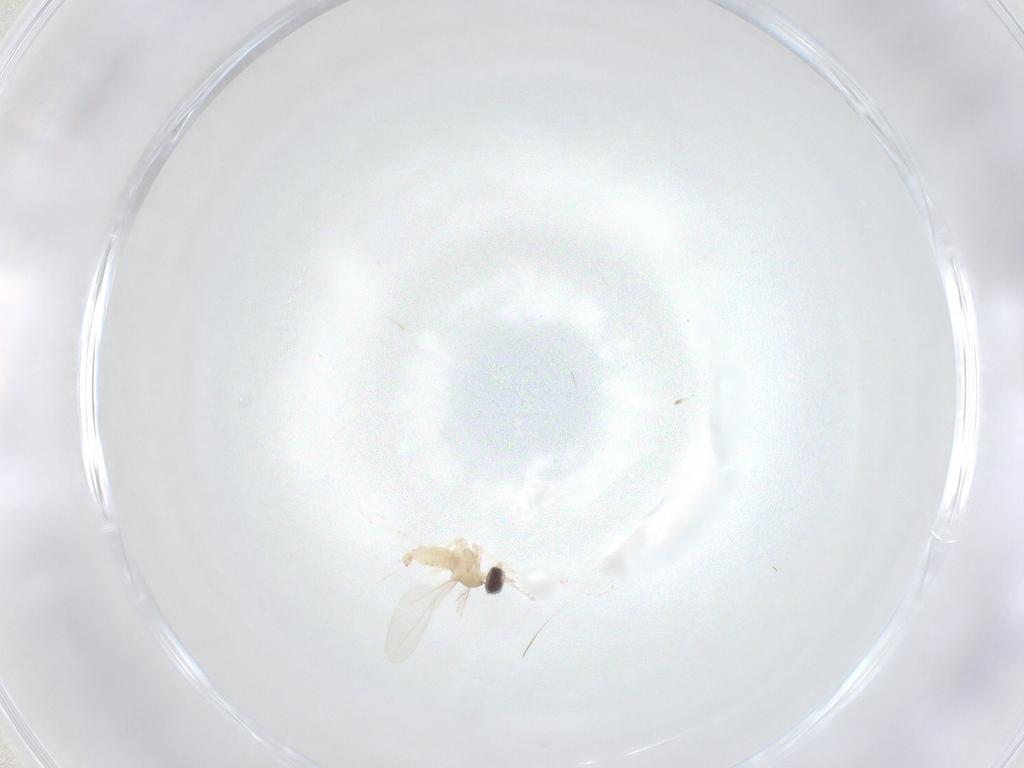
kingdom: Animalia
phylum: Arthropoda
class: Insecta
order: Diptera
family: Cecidomyiidae
